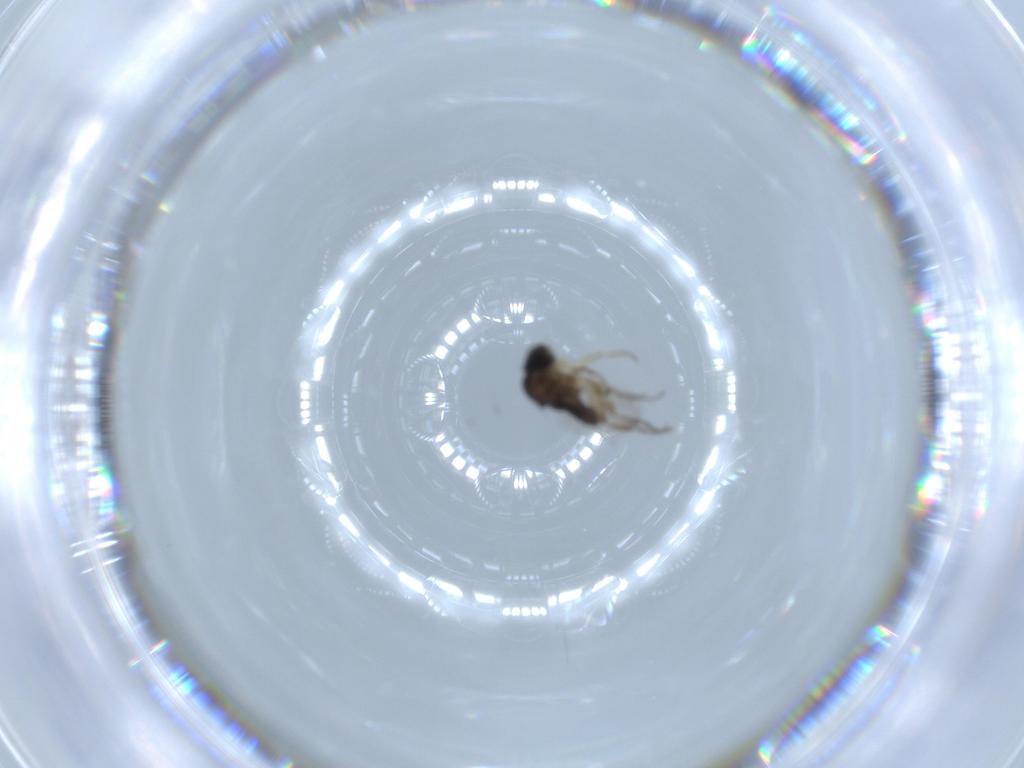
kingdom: Animalia
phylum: Arthropoda
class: Insecta
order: Diptera
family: Phoridae
